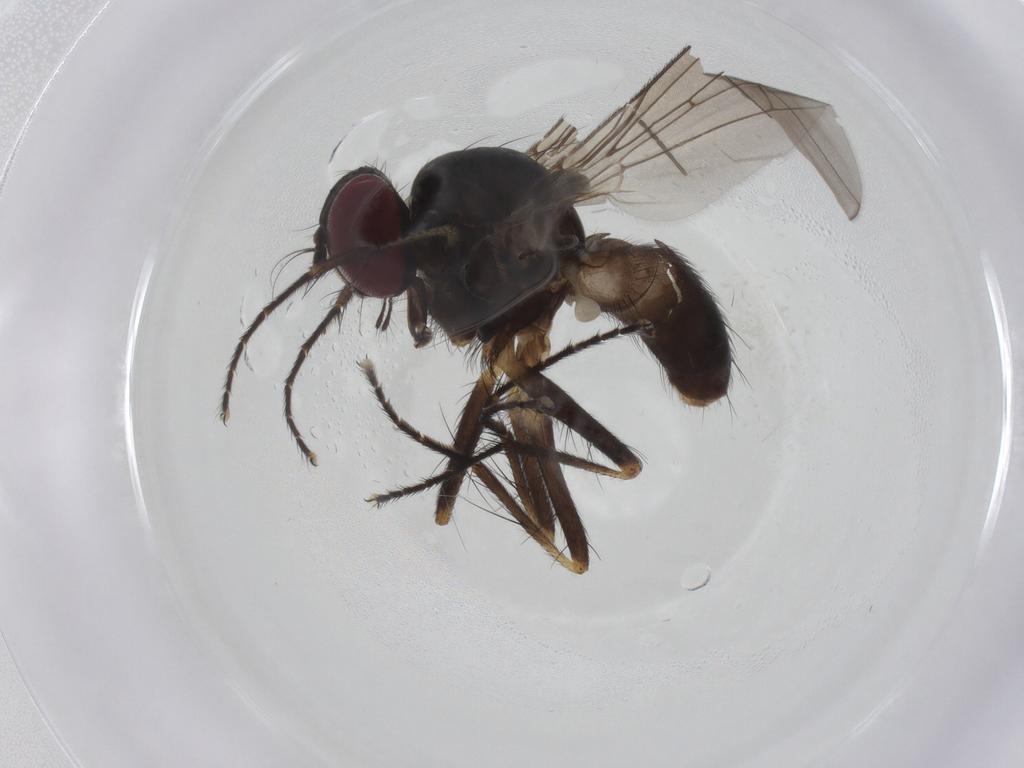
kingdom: Animalia
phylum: Arthropoda
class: Insecta
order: Diptera
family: Anthomyiidae
